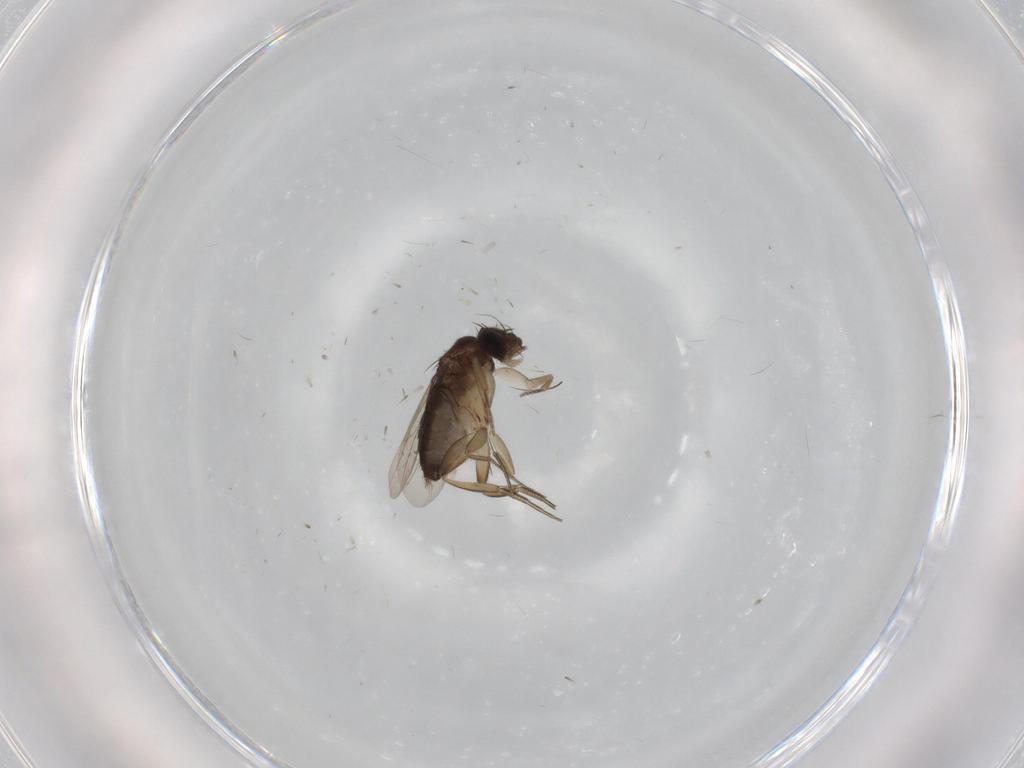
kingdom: Animalia
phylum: Arthropoda
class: Insecta
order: Diptera
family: Phoridae
